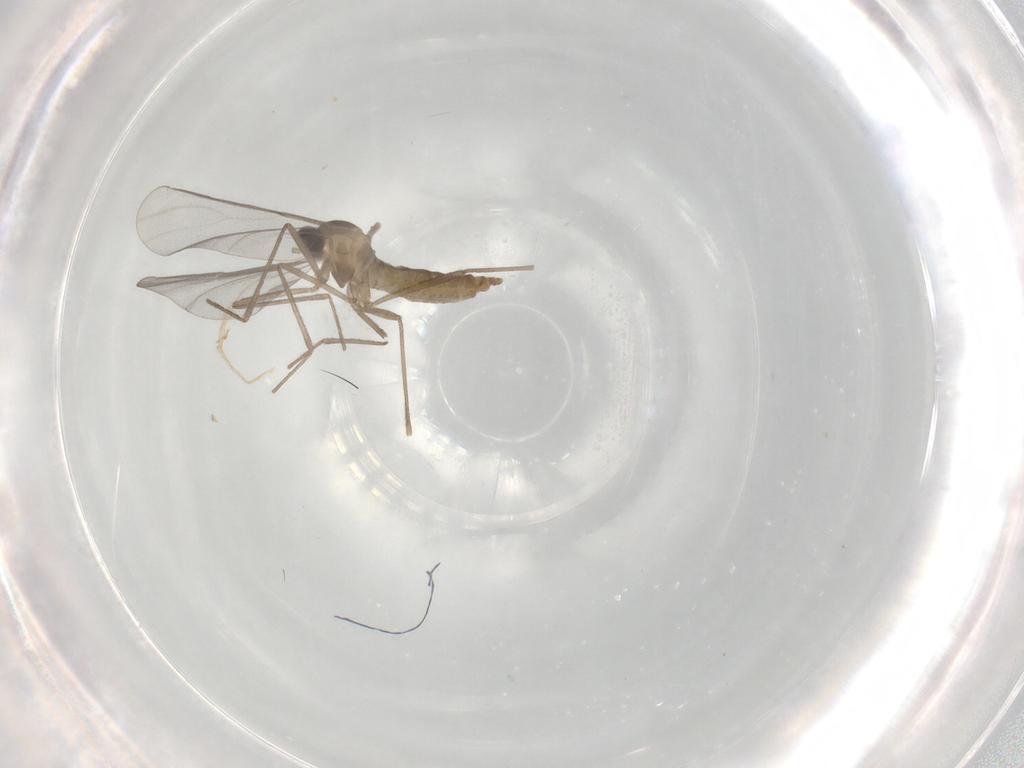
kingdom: Animalia
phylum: Arthropoda
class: Insecta
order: Diptera
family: Cecidomyiidae
